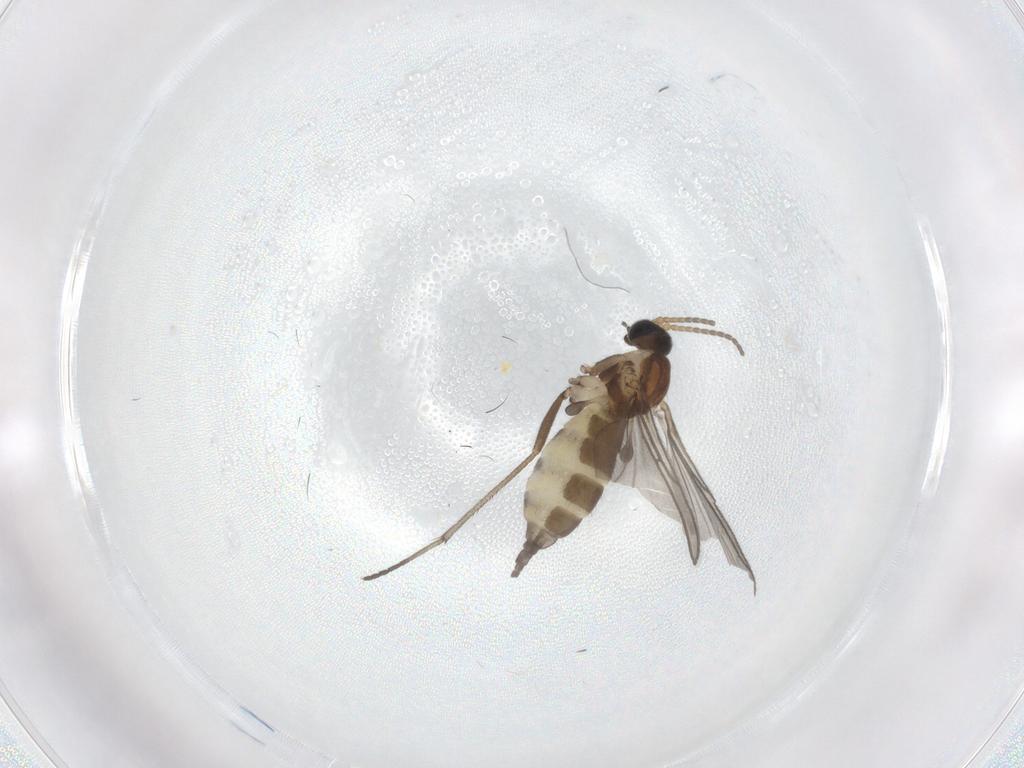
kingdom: Animalia
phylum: Arthropoda
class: Insecta
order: Diptera
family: Sciaridae
